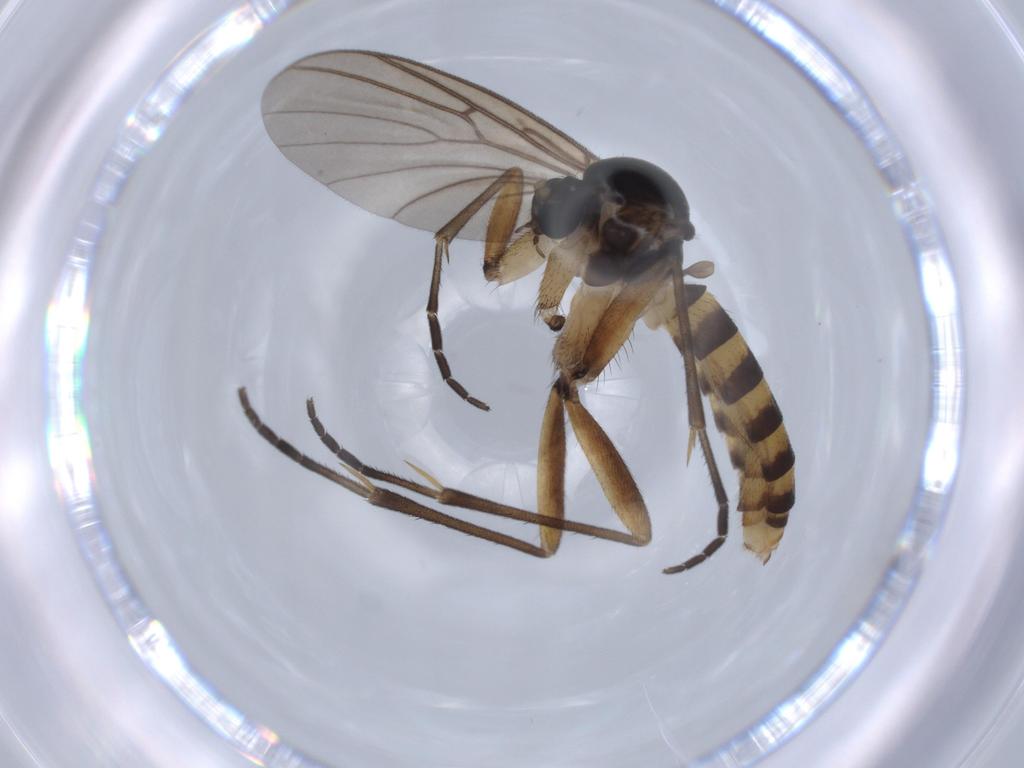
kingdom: Animalia
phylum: Arthropoda
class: Insecta
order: Diptera
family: Mycetophilidae
